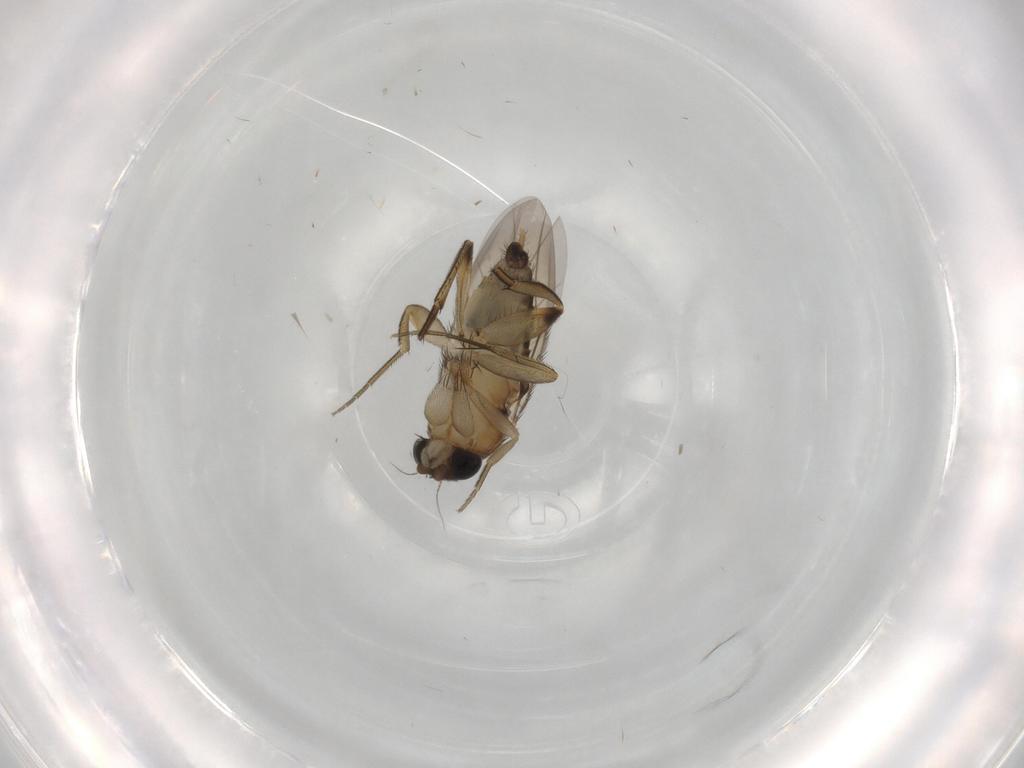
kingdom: Animalia
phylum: Arthropoda
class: Insecta
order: Diptera
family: Phoridae
